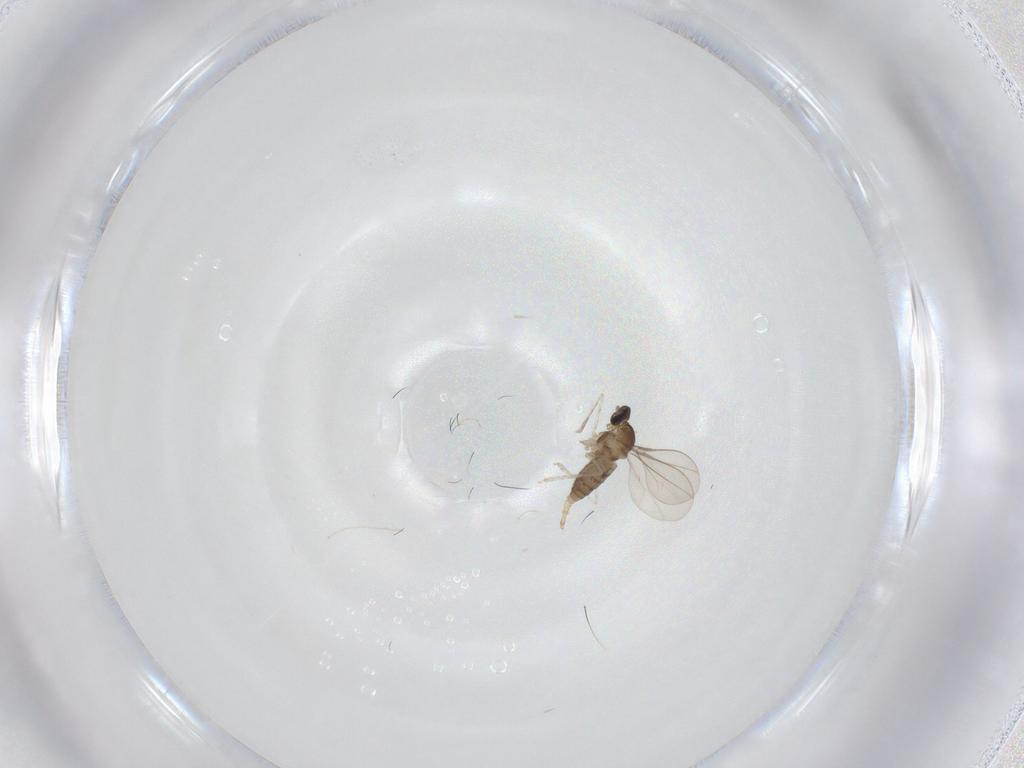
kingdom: Animalia
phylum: Arthropoda
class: Insecta
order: Diptera
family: Cecidomyiidae
